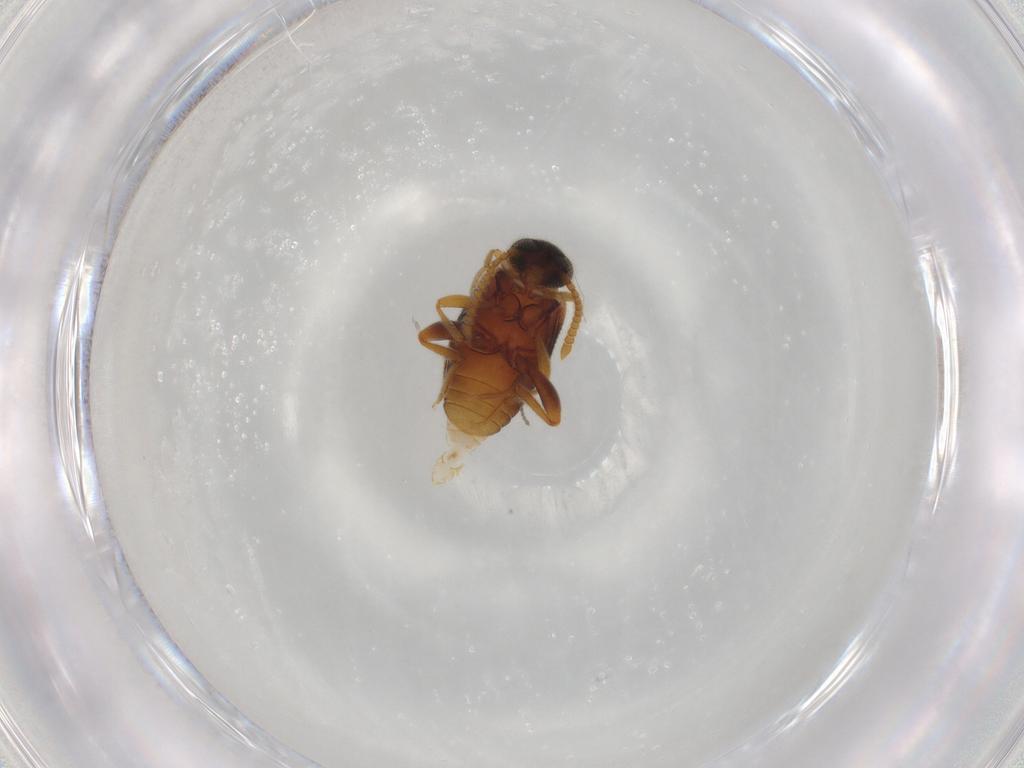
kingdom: Animalia
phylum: Arthropoda
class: Insecta
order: Coleoptera
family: Aderidae
